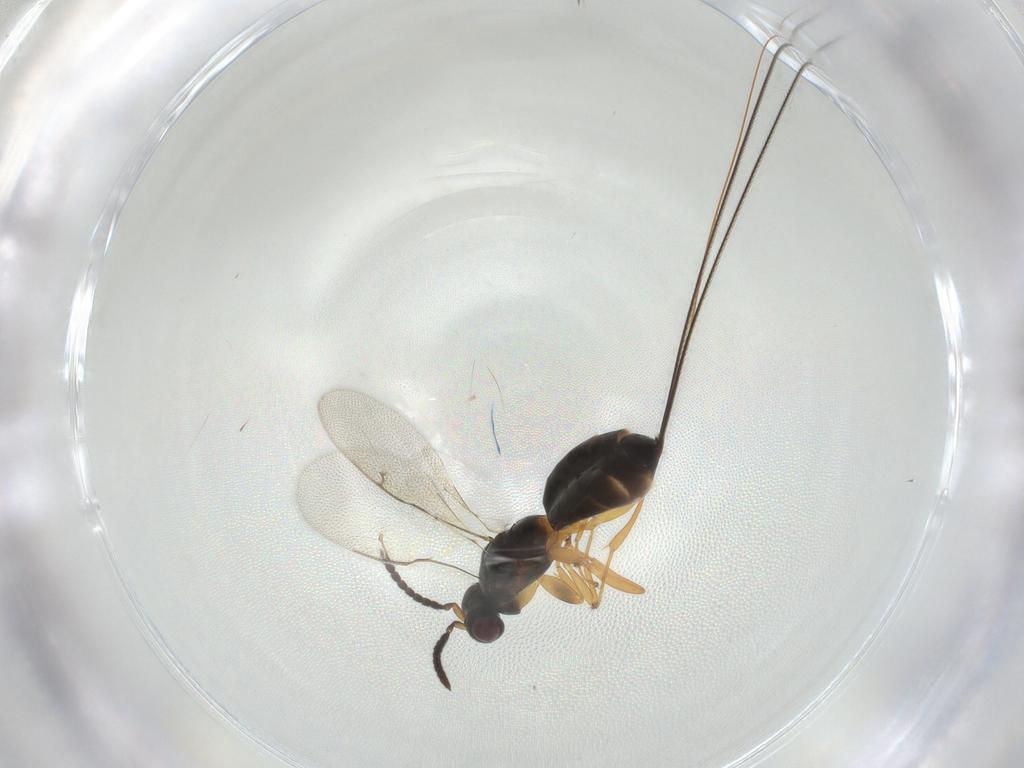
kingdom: Animalia
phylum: Arthropoda
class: Insecta
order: Hymenoptera
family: Pteromalidae
